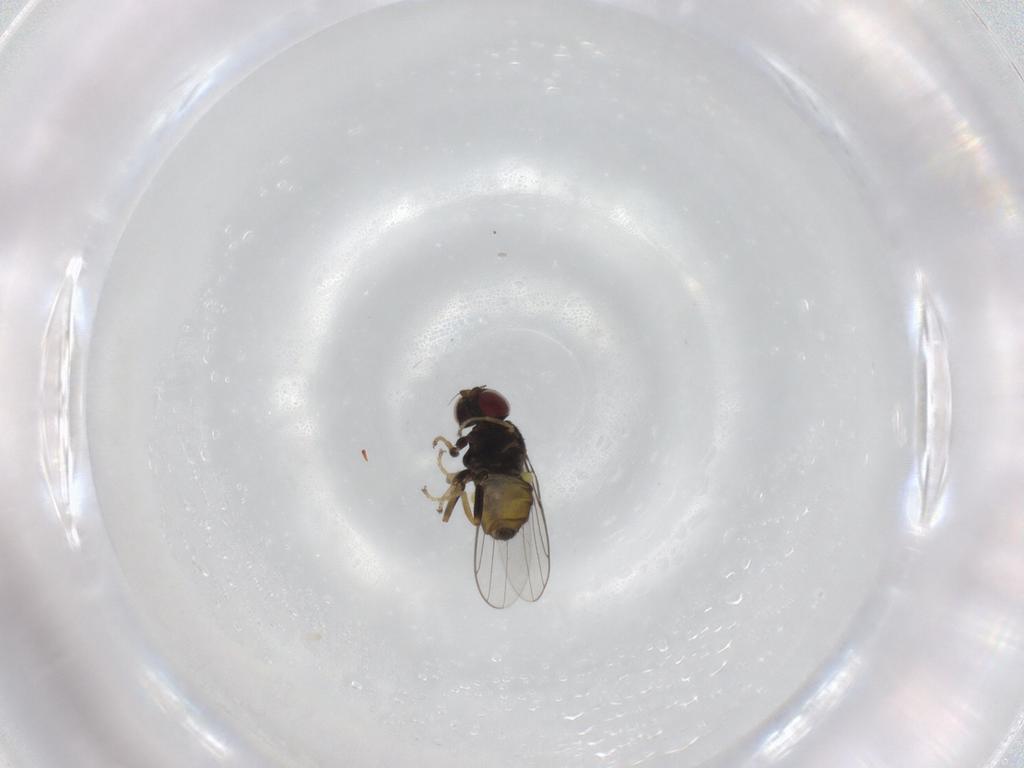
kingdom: Animalia
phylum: Arthropoda
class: Insecta
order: Diptera
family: Chloropidae
